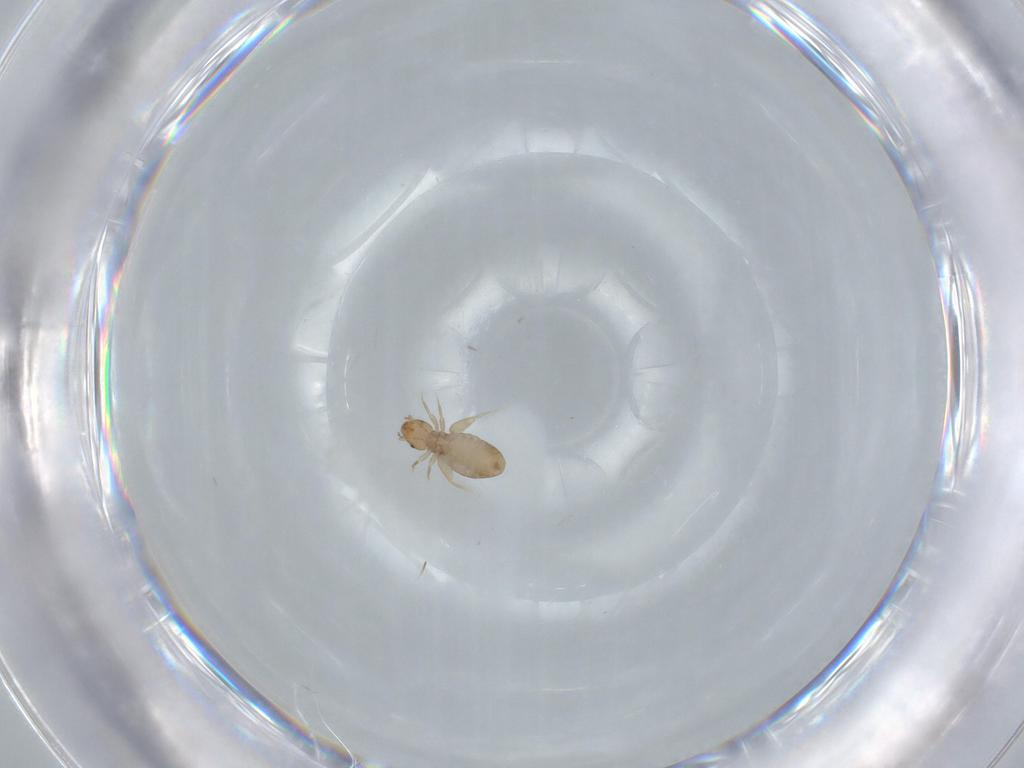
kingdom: Animalia
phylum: Arthropoda
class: Insecta
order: Psocodea
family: Liposcelididae
